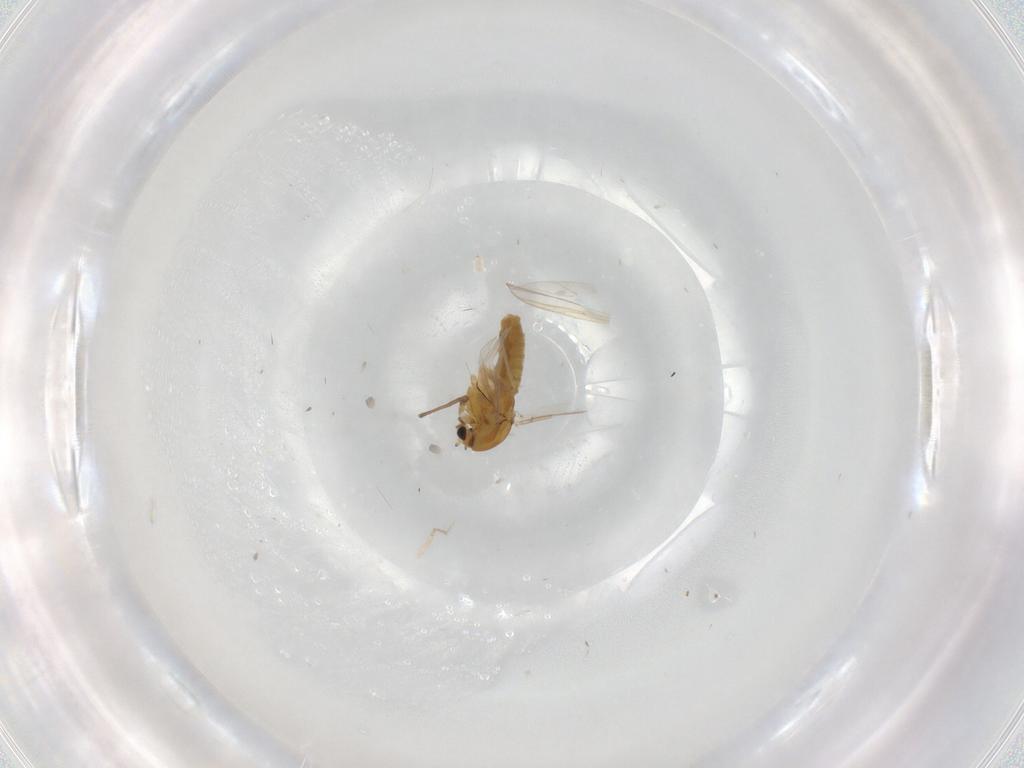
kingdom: Animalia
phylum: Arthropoda
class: Insecta
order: Diptera
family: Chironomidae
